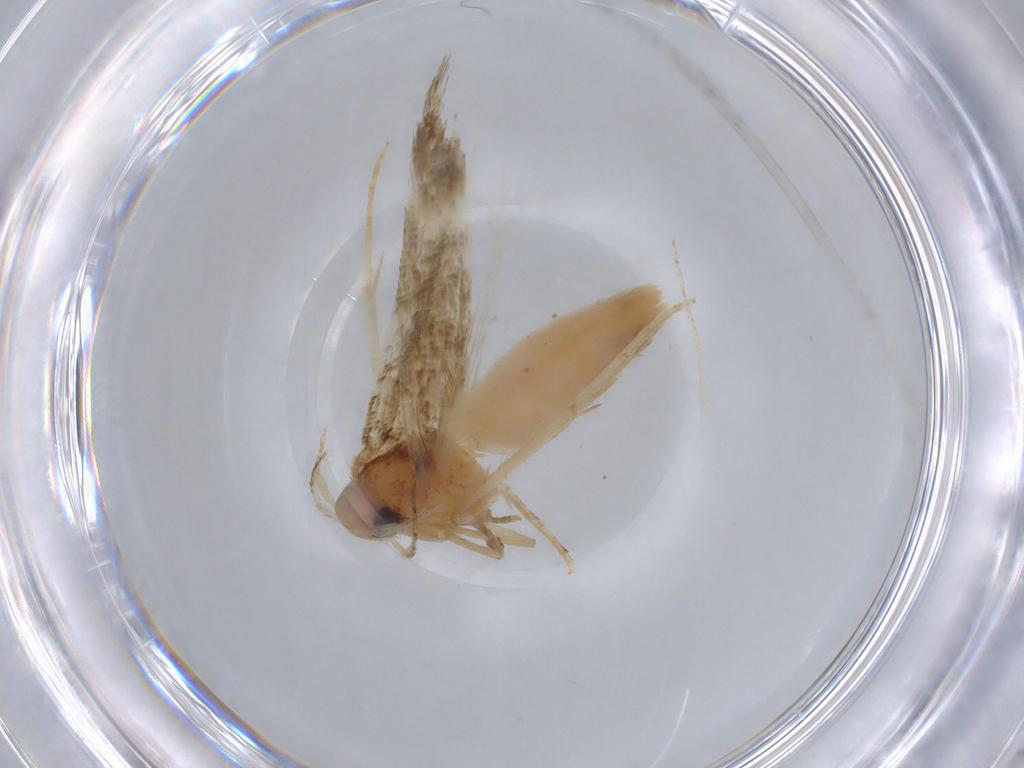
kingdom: Animalia
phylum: Arthropoda
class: Insecta
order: Lepidoptera
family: Crambidae
